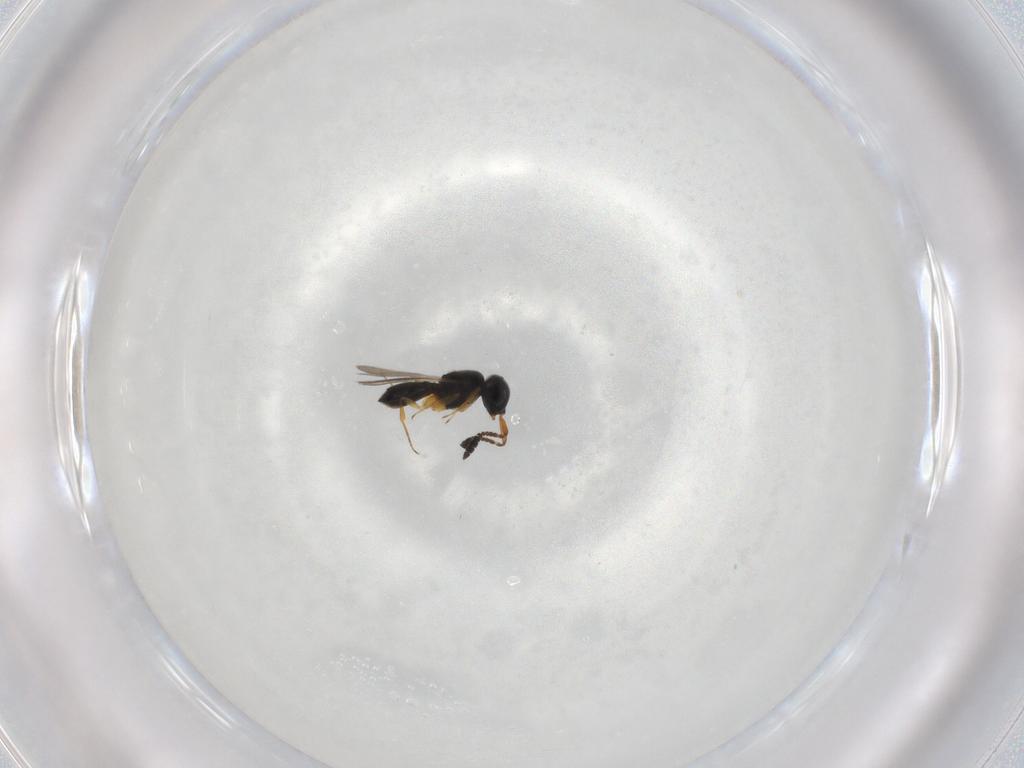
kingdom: Animalia
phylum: Arthropoda
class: Insecta
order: Hymenoptera
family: Scelionidae
